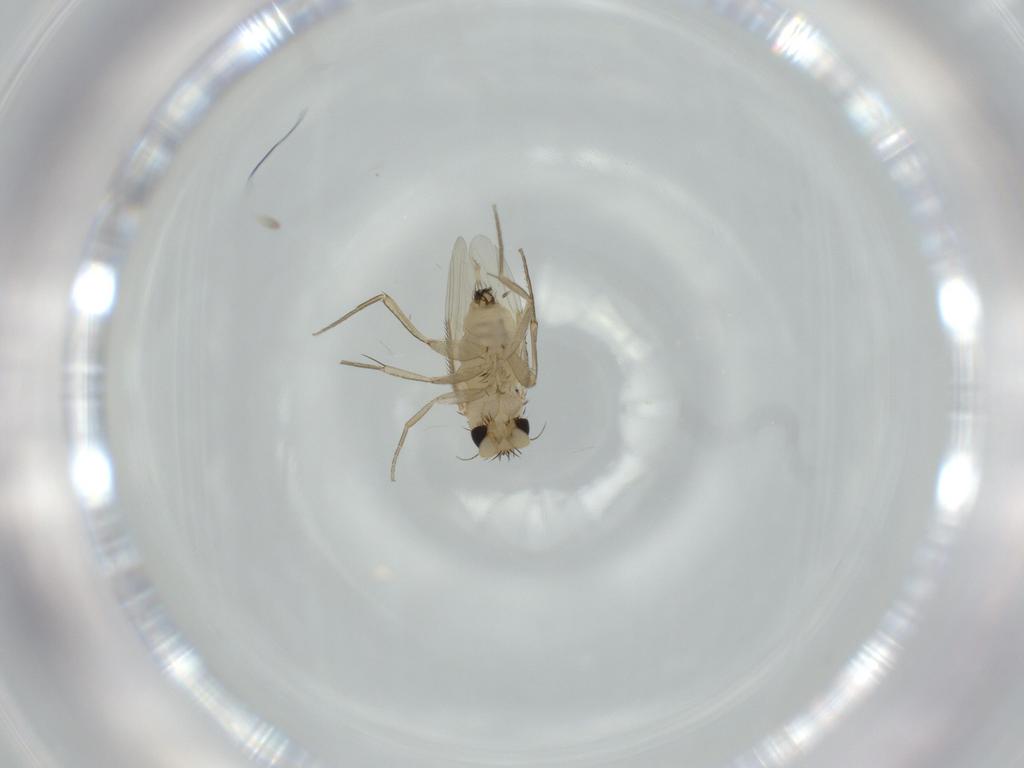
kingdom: Animalia
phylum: Arthropoda
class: Insecta
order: Diptera
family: Phoridae
